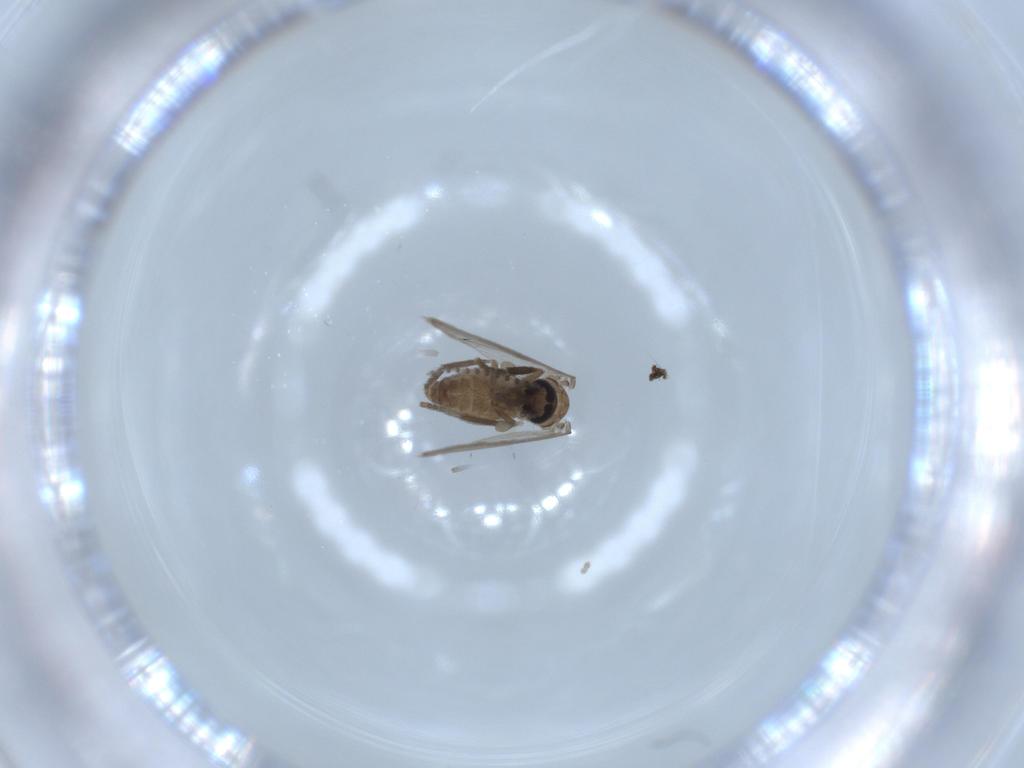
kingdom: Animalia
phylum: Arthropoda
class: Insecta
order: Diptera
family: Sphaeroceridae
